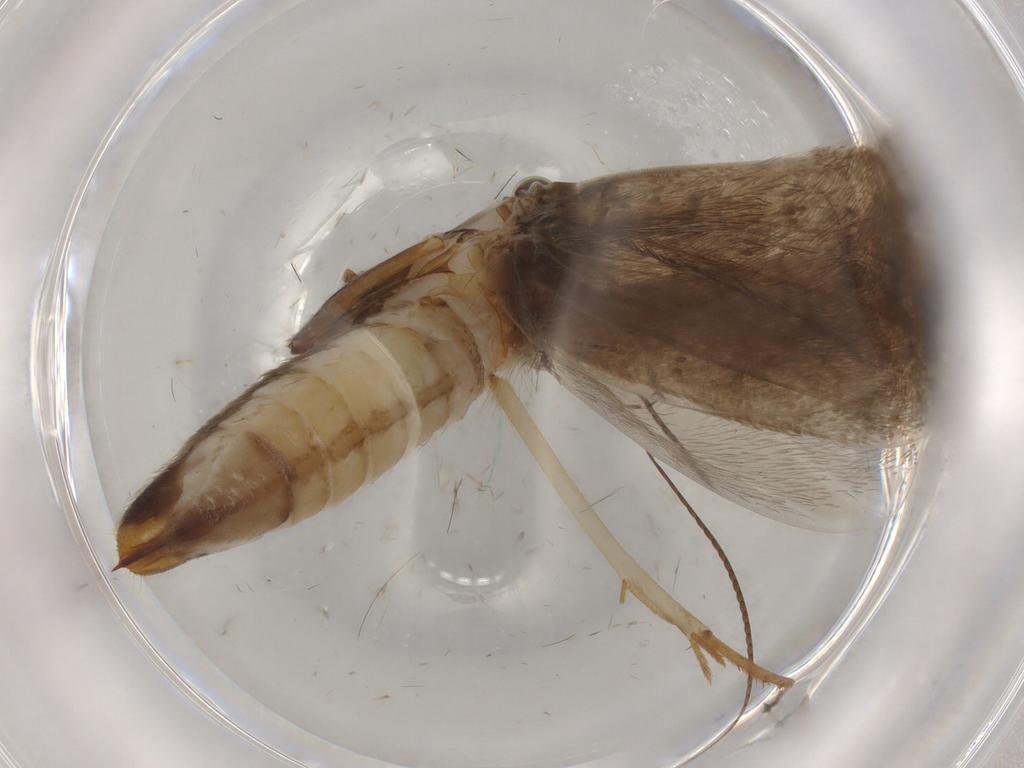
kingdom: Animalia
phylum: Arthropoda
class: Insecta
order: Lepidoptera
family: Adelidae
